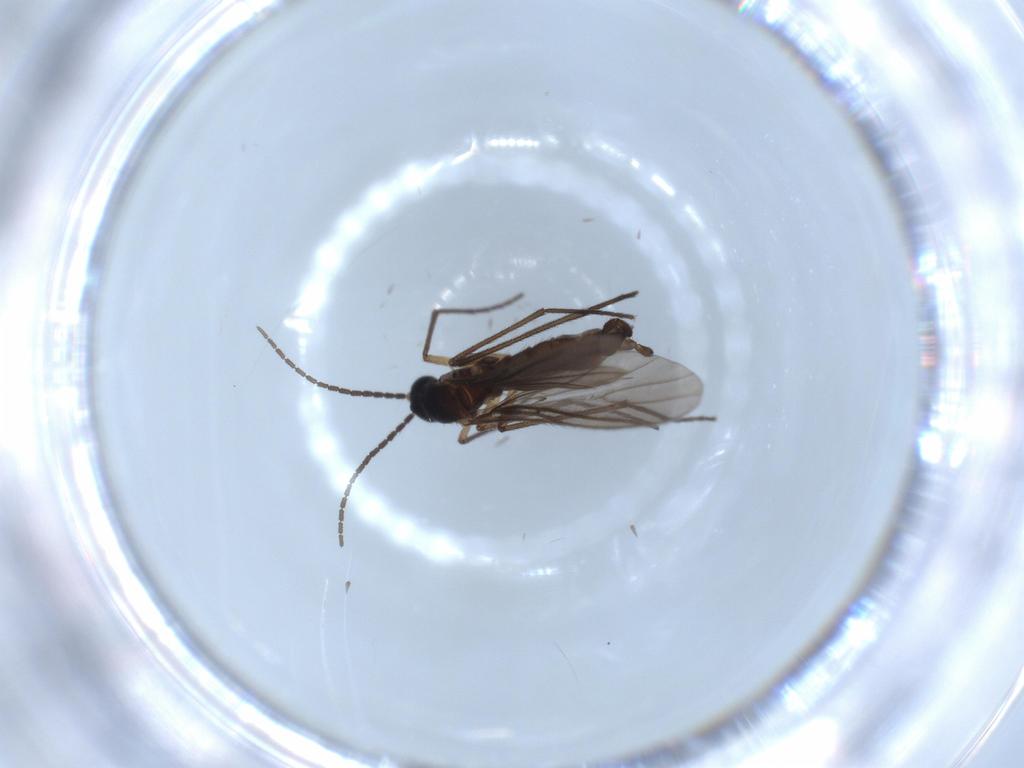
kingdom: Animalia
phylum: Arthropoda
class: Insecta
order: Diptera
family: Sciaridae
